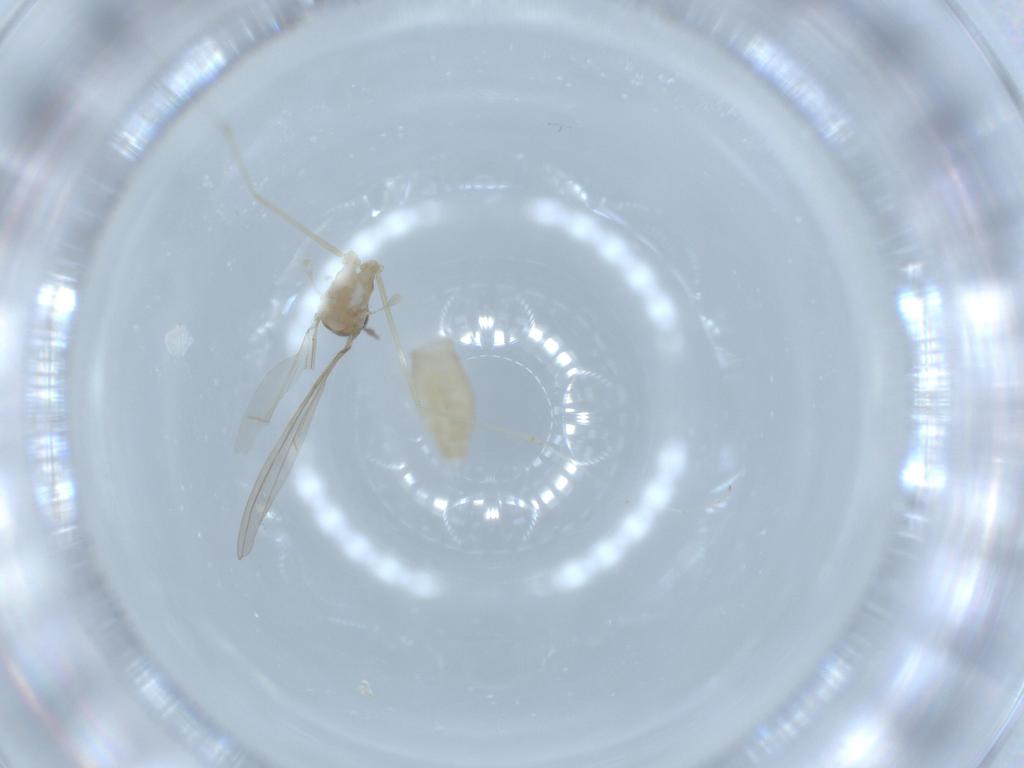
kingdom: Animalia
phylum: Arthropoda
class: Insecta
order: Diptera
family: Cecidomyiidae
